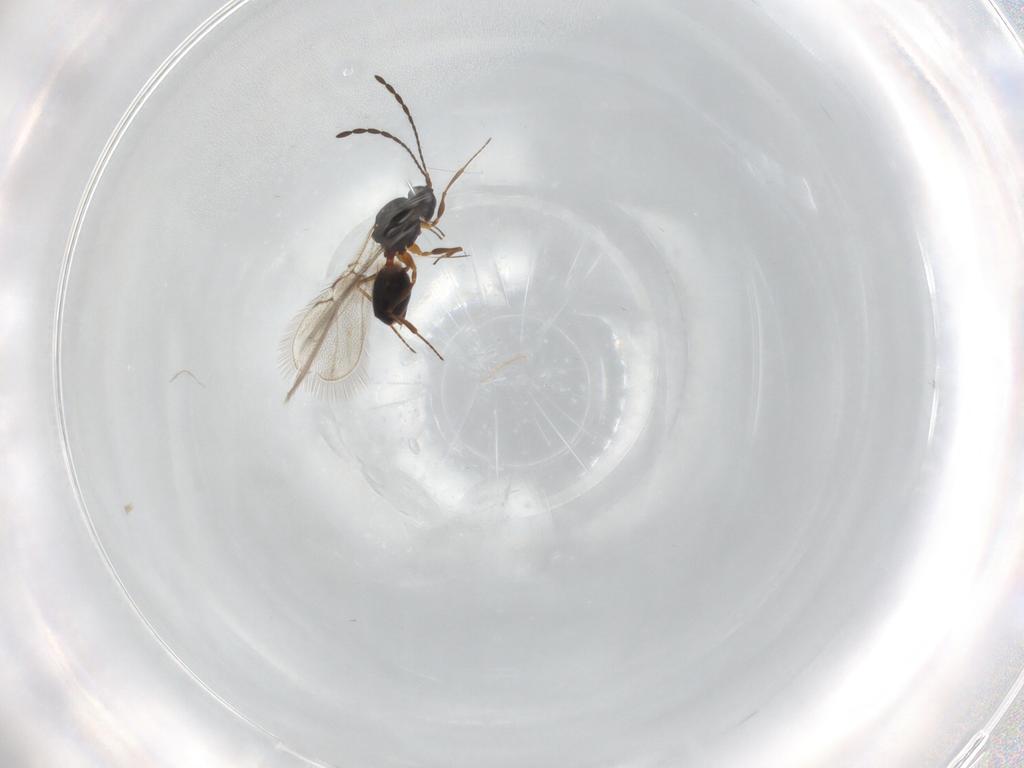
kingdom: Animalia
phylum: Arthropoda
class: Insecta
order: Hymenoptera
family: Figitidae
